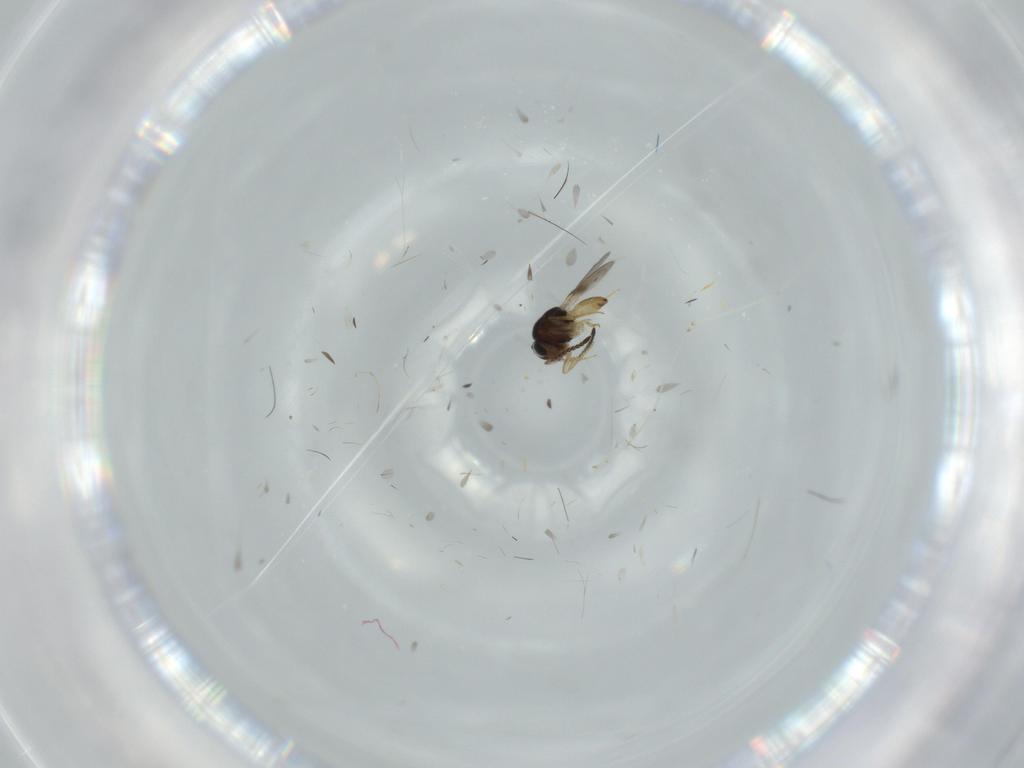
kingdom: Animalia
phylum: Arthropoda
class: Insecta
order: Hymenoptera
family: Scelionidae
